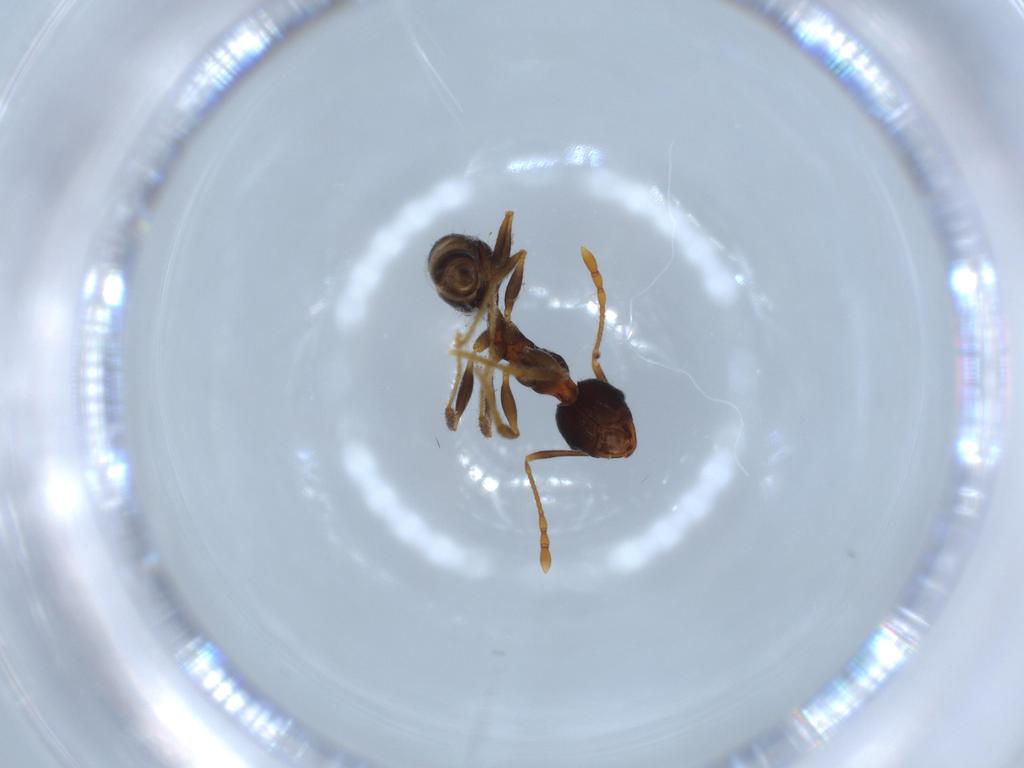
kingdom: Animalia
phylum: Arthropoda
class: Insecta
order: Hymenoptera
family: Formicidae
